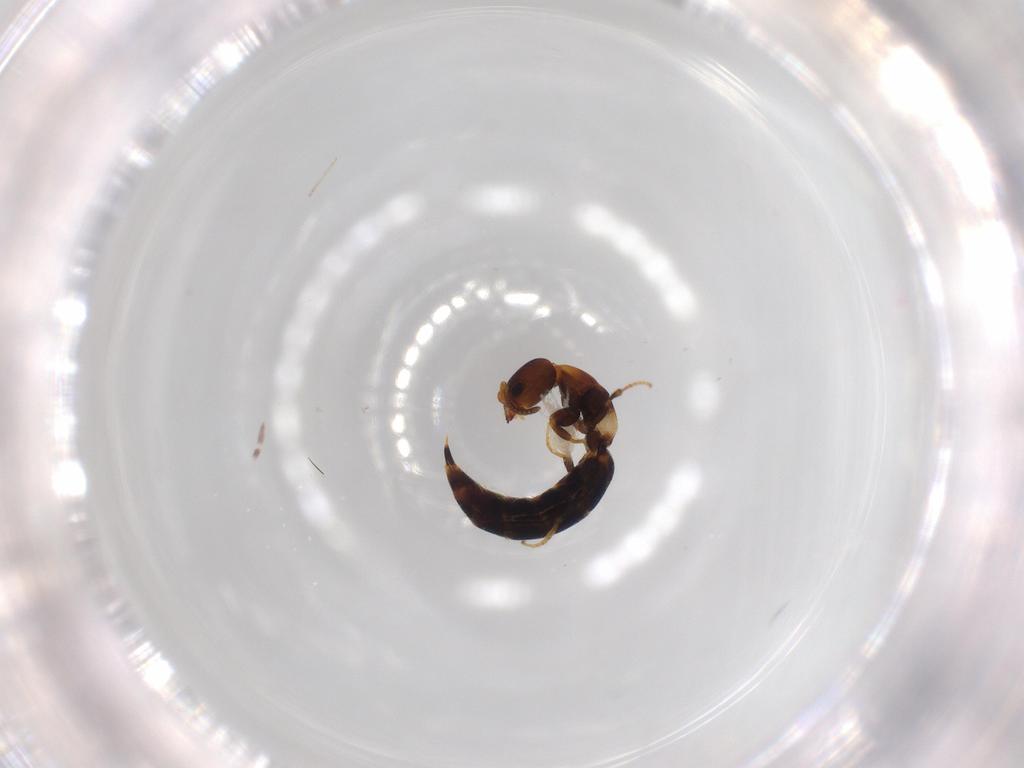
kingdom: Animalia
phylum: Arthropoda
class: Insecta
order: Hymenoptera
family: Bethylidae
